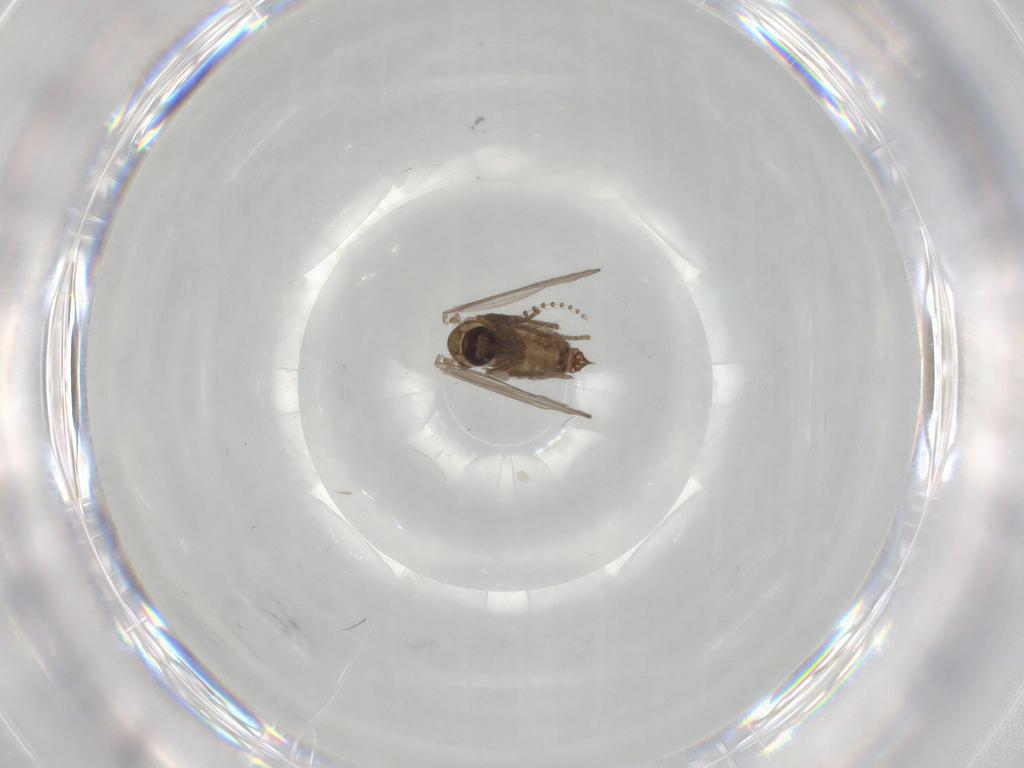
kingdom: Animalia
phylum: Arthropoda
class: Insecta
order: Diptera
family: Psychodidae
